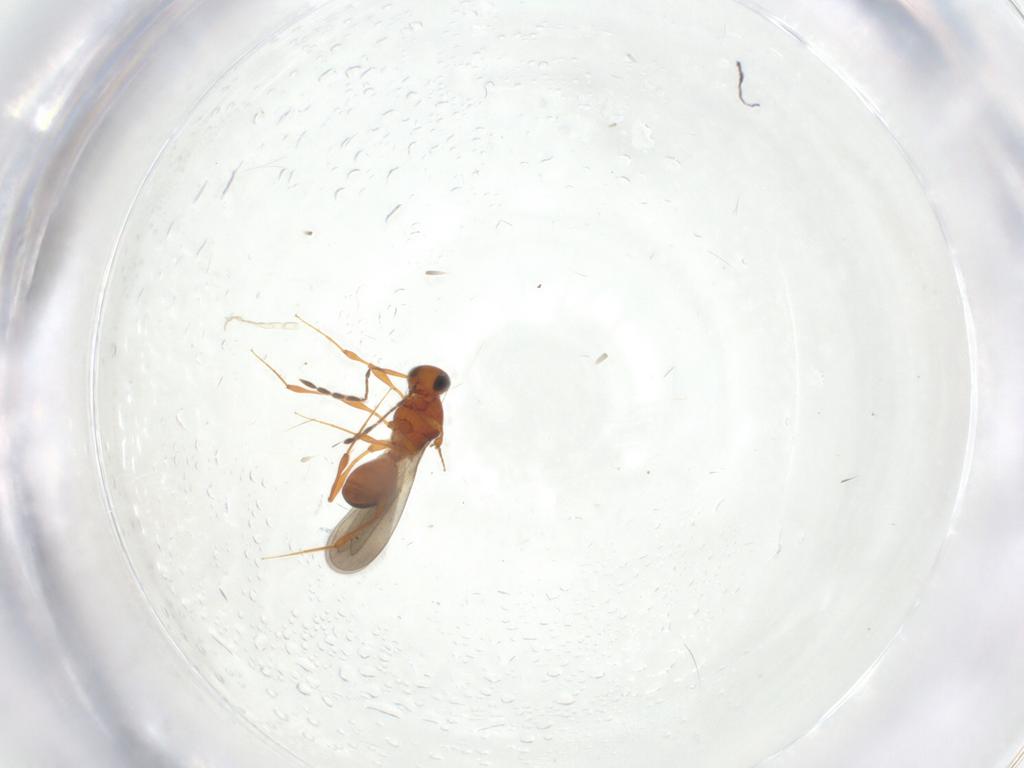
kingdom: Animalia
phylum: Arthropoda
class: Insecta
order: Hymenoptera
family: Platygastridae
